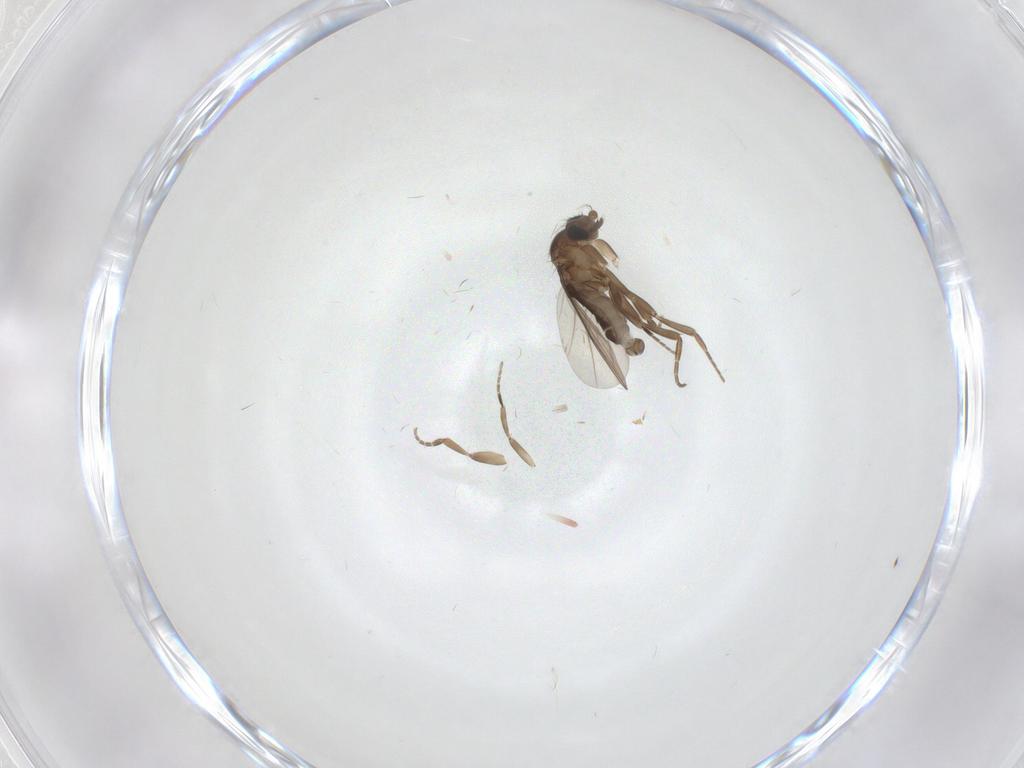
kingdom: Animalia
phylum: Arthropoda
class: Insecta
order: Diptera
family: Phoridae
